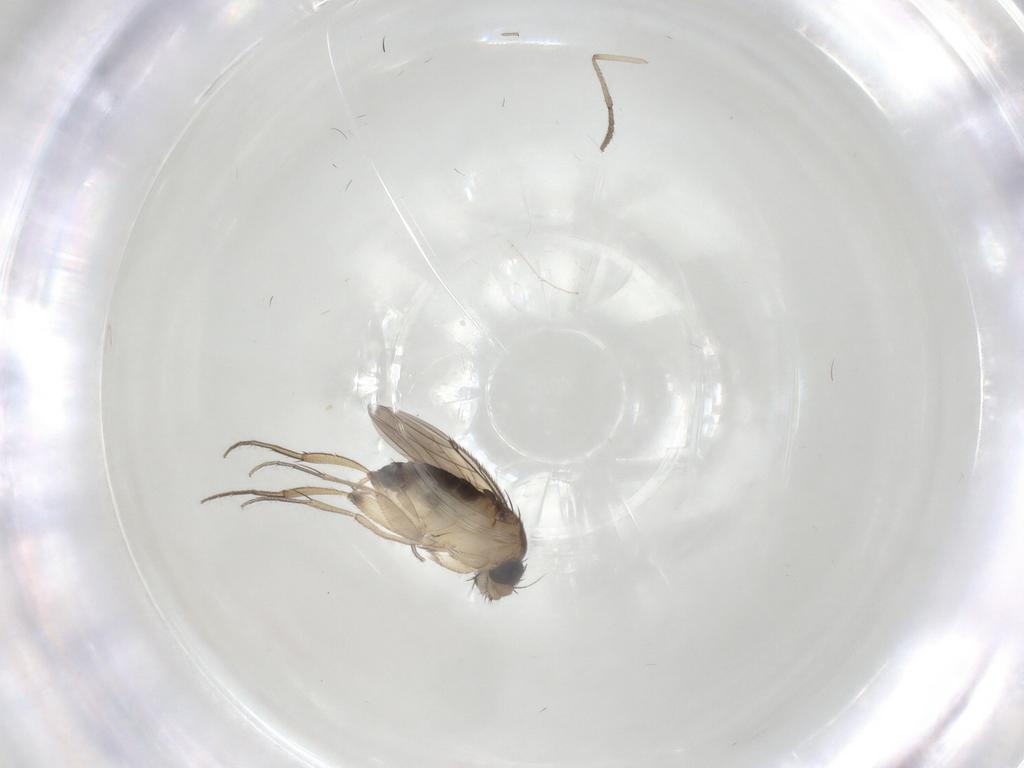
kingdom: Animalia
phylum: Arthropoda
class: Insecta
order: Diptera
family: Phoridae
